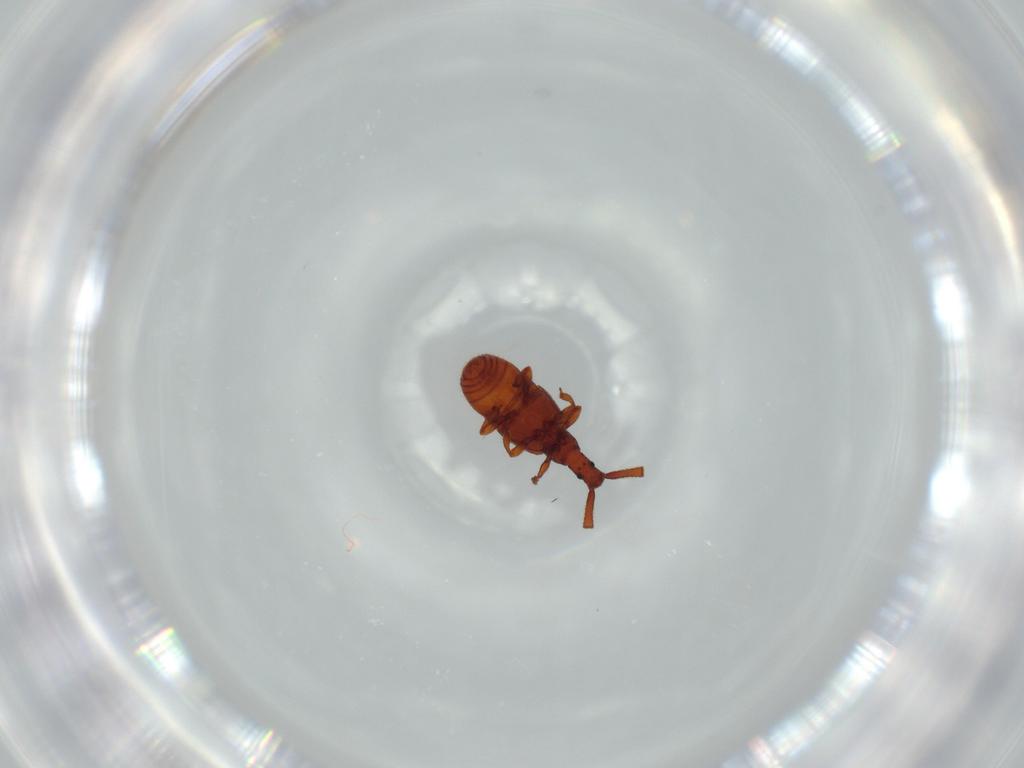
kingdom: Animalia
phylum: Arthropoda
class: Insecta
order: Coleoptera
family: Staphylinidae
